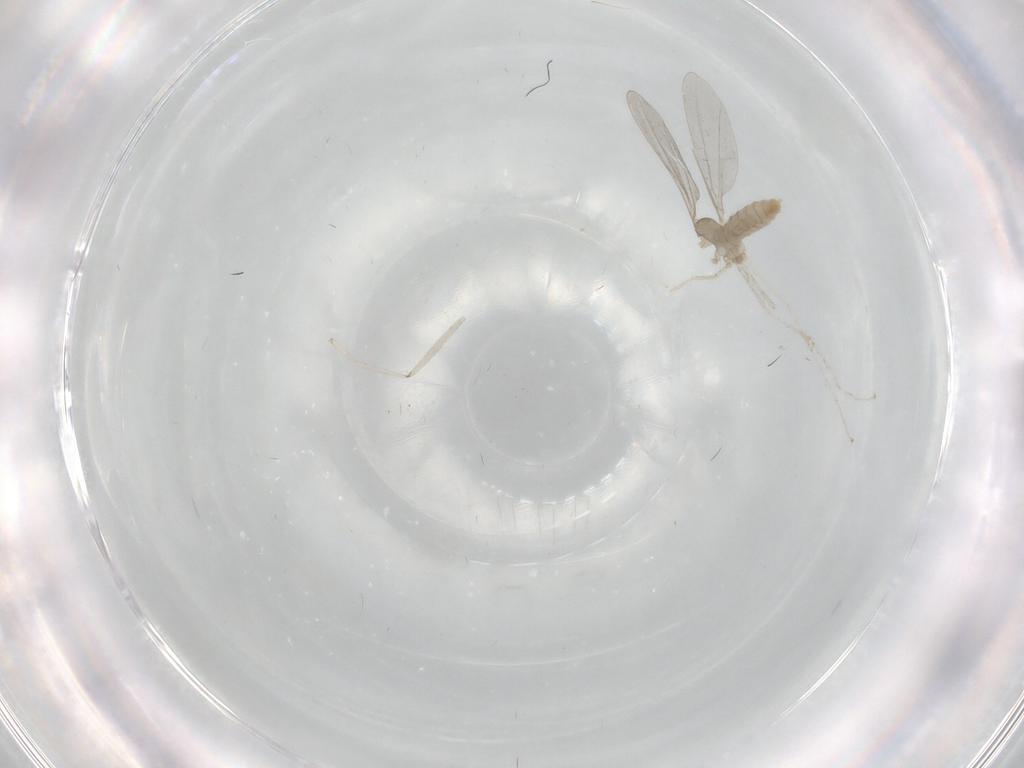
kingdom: Animalia
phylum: Arthropoda
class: Insecta
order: Diptera
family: Cecidomyiidae
